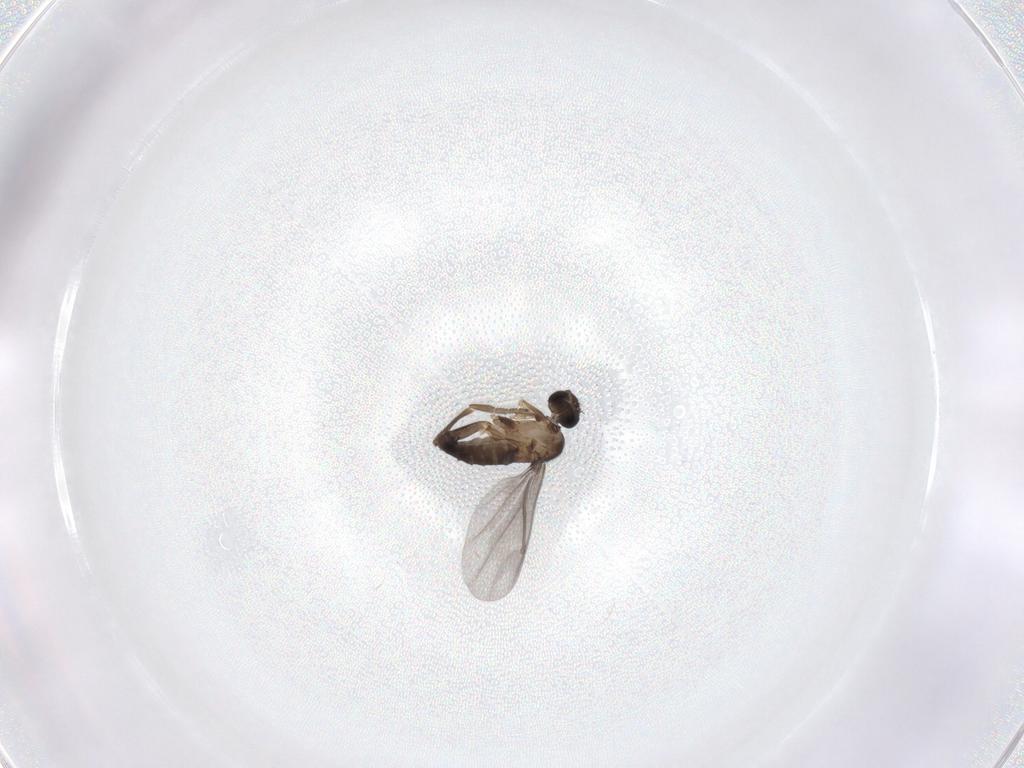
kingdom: Animalia
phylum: Arthropoda
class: Insecta
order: Diptera
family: Phoridae
